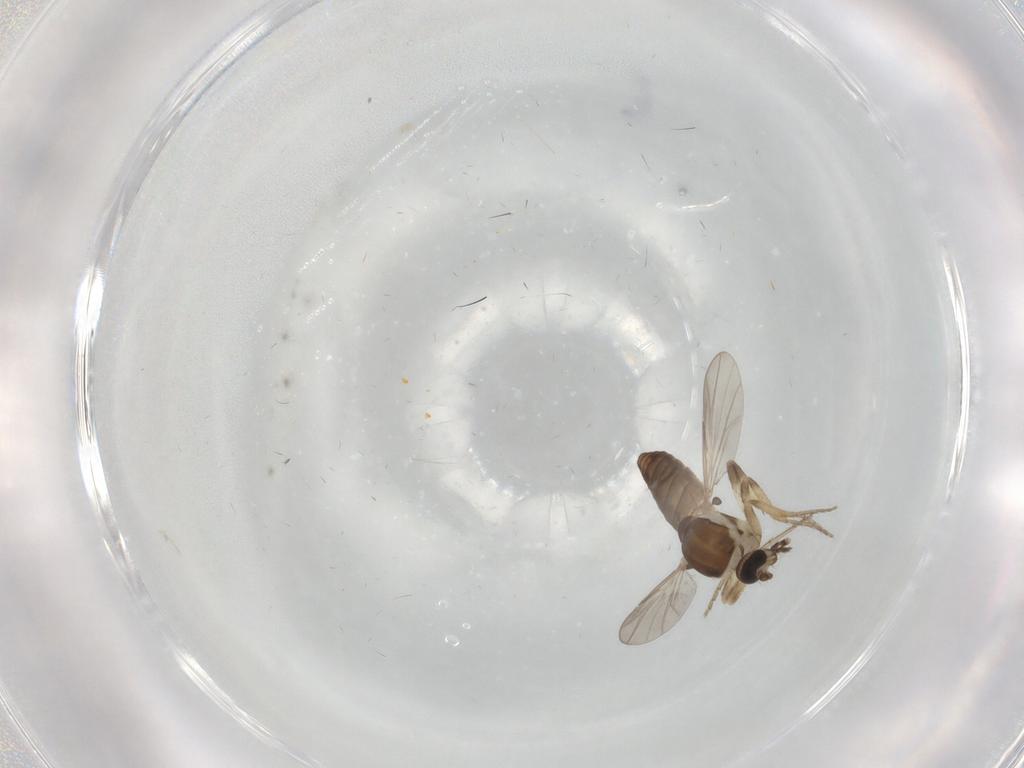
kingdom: Animalia
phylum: Arthropoda
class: Insecta
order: Diptera
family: Ceratopogonidae
